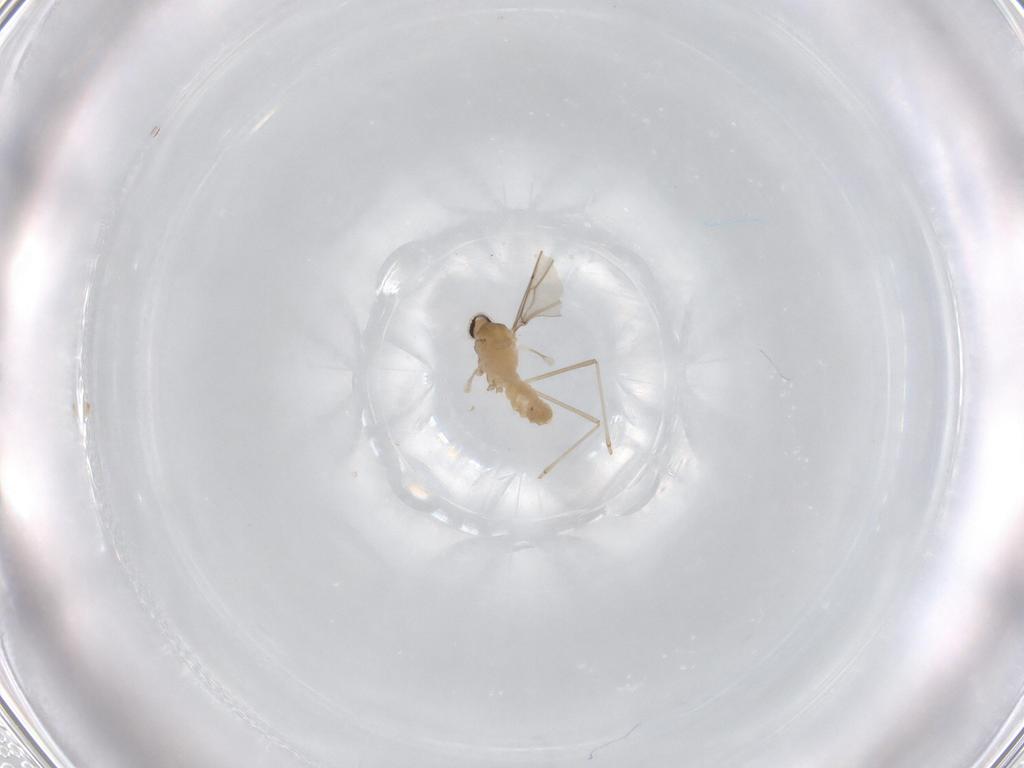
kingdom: Animalia
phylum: Arthropoda
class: Insecta
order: Diptera
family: Cecidomyiidae
